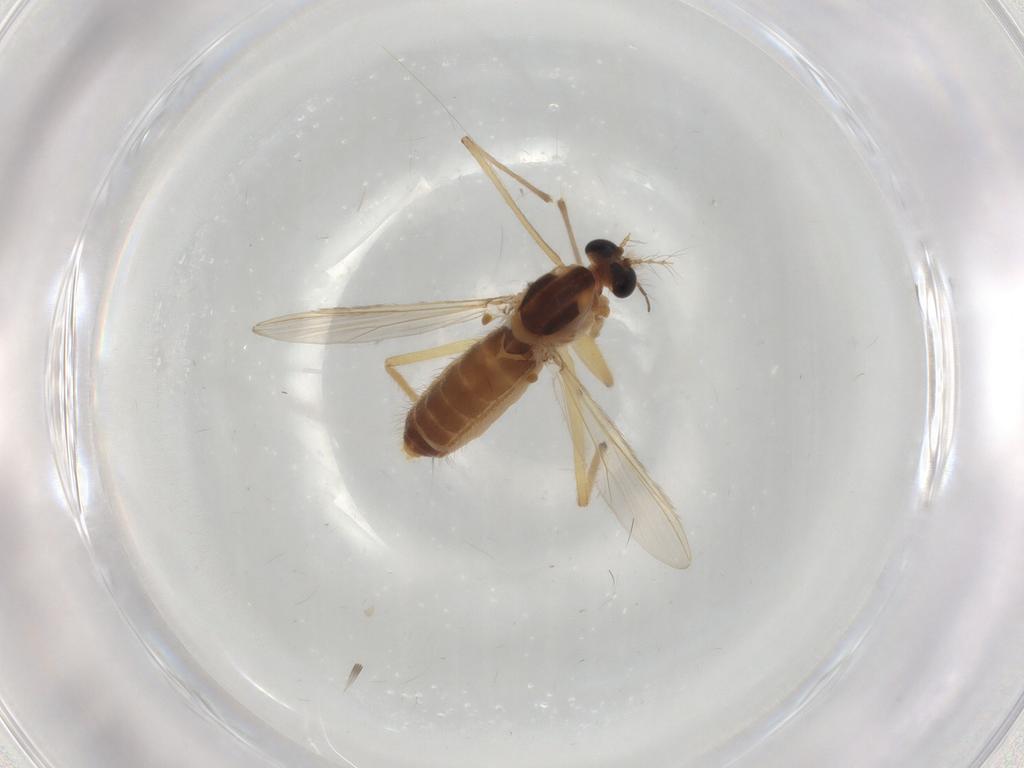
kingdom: Animalia
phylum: Arthropoda
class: Insecta
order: Diptera
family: Chironomidae
